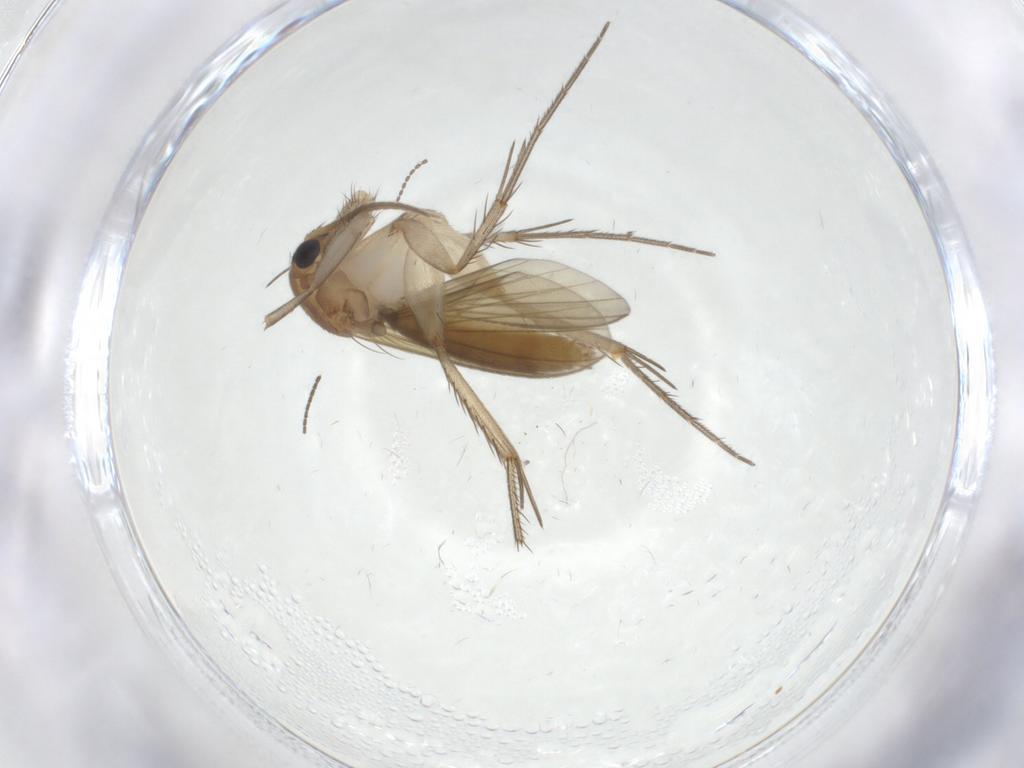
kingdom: Animalia
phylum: Arthropoda
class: Insecta
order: Diptera
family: Mycetophilidae
